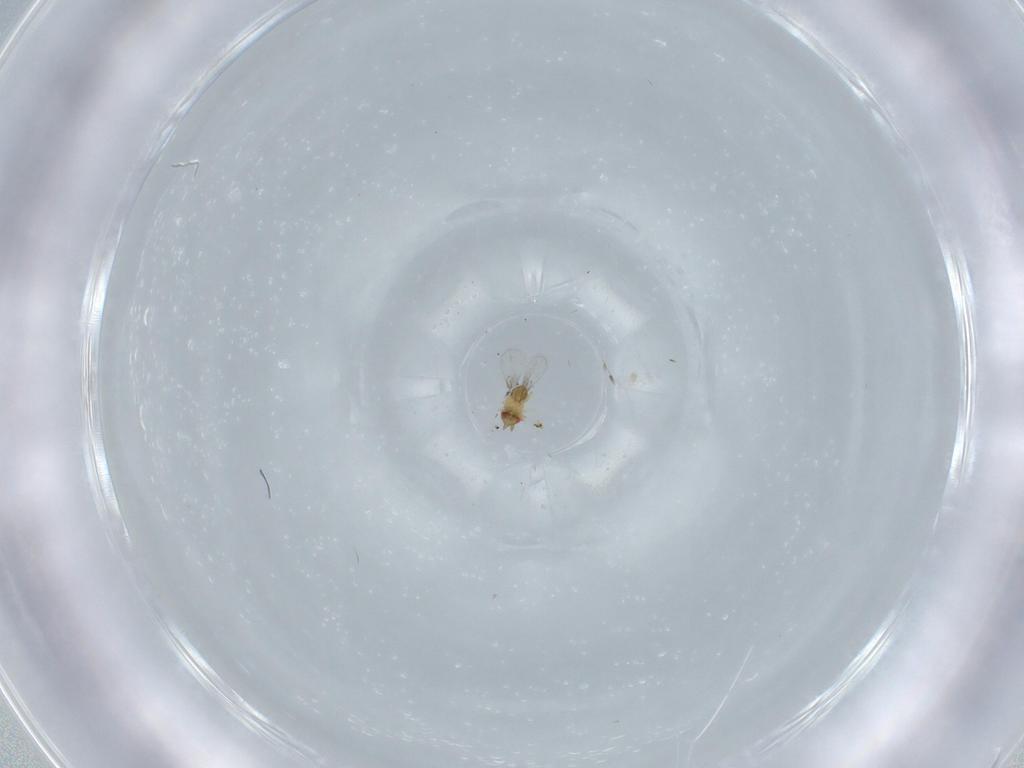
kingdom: Animalia
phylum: Arthropoda
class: Insecta
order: Hymenoptera
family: Trichogrammatidae
